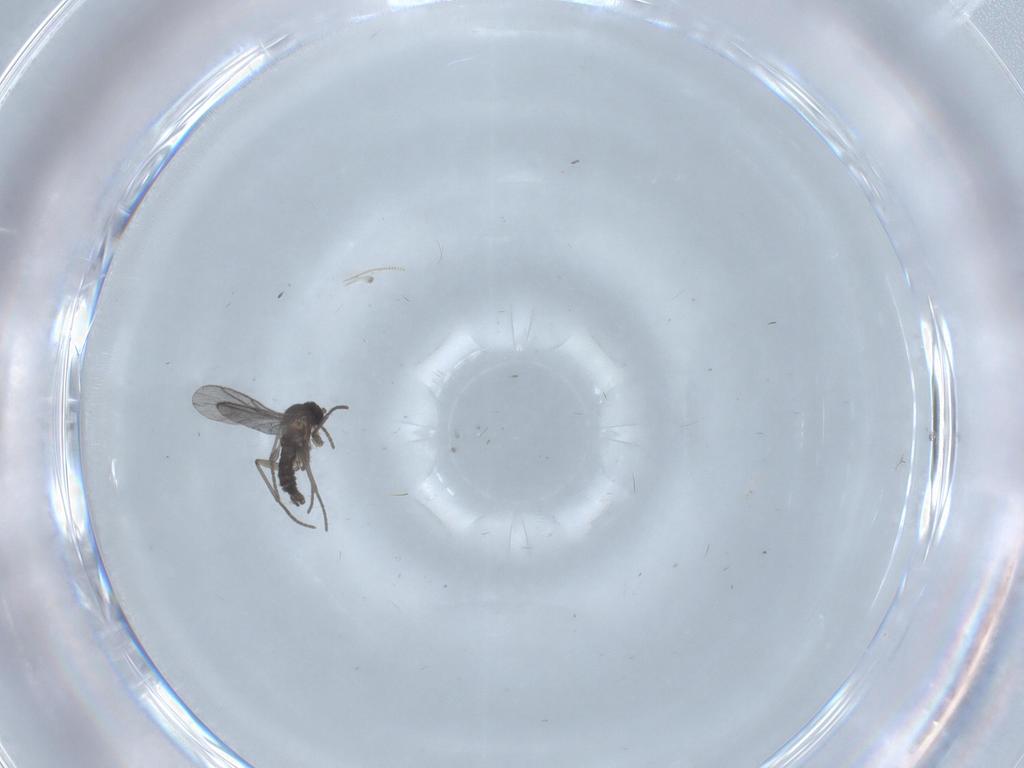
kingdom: Animalia
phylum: Arthropoda
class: Insecta
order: Diptera
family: Chironomidae
